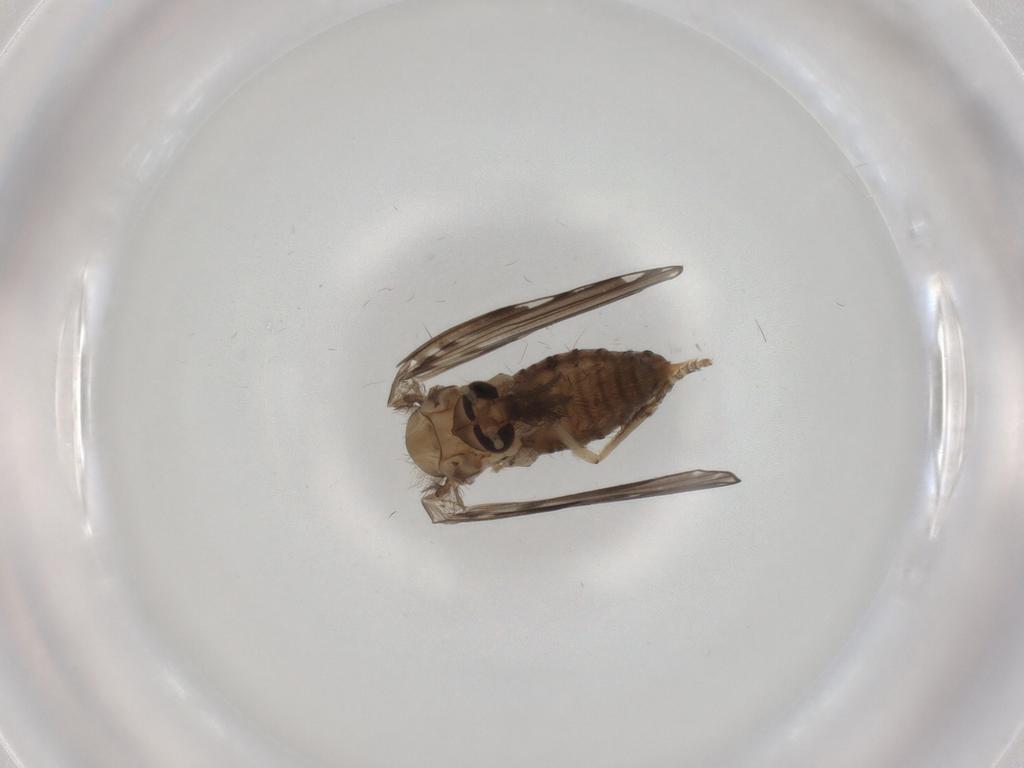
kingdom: Animalia
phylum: Arthropoda
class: Insecta
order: Diptera
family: Psychodidae
